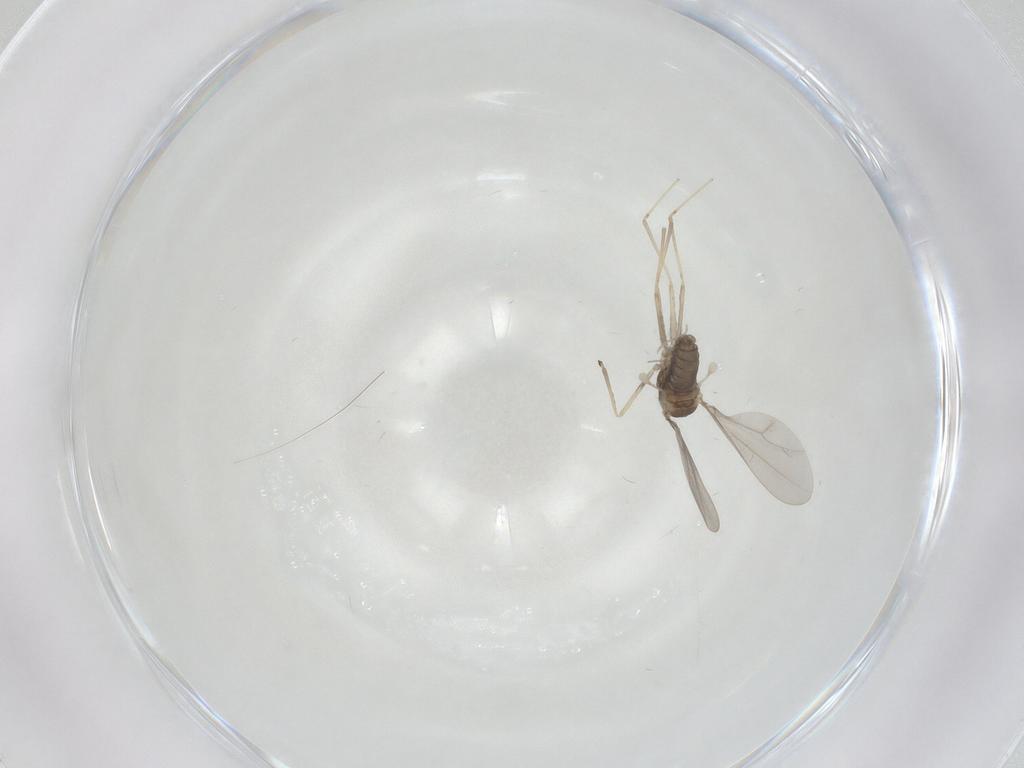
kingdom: Animalia
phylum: Arthropoda
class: Insecta
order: Diptera
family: Cecidomyiidae
